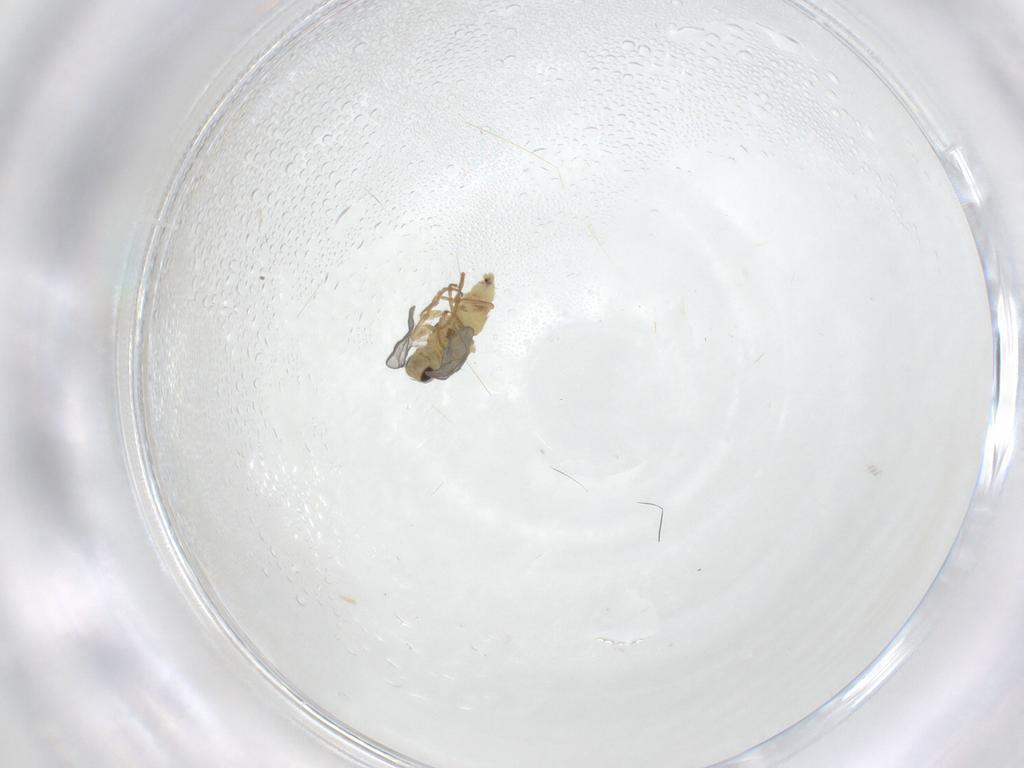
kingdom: Animalia
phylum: Arthropoda
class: Insecta
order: Diptera
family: Agromyzidae
